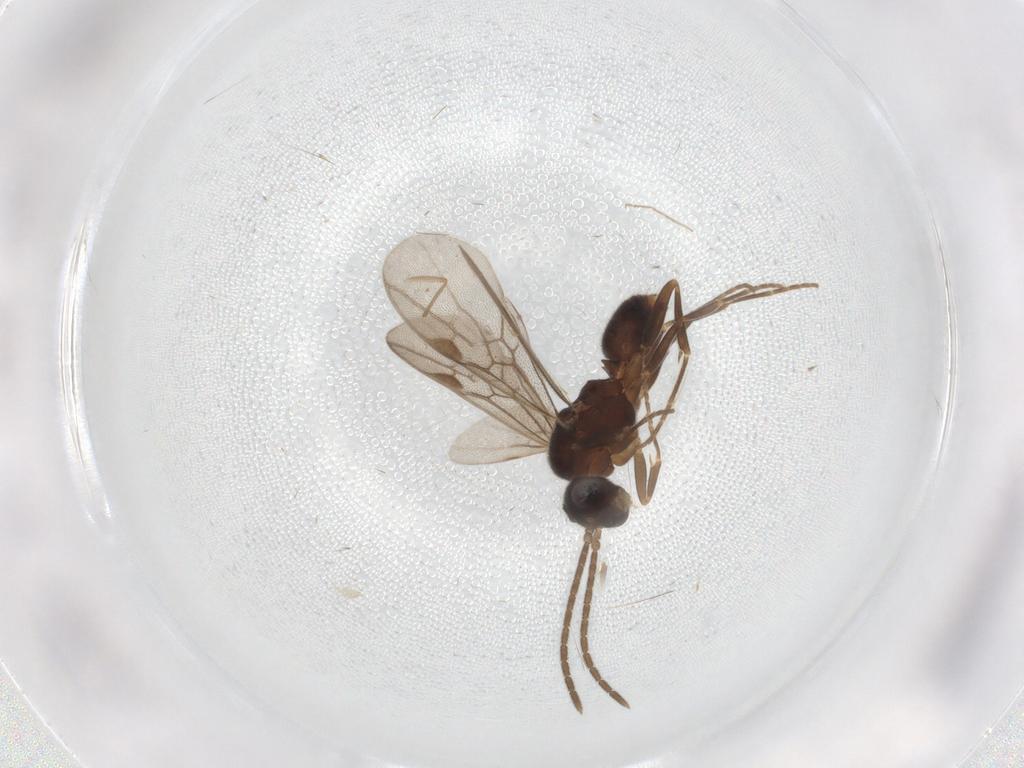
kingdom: Animalia
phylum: Arthropoda
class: Insecta
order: Hymenoptera
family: Formicidae
